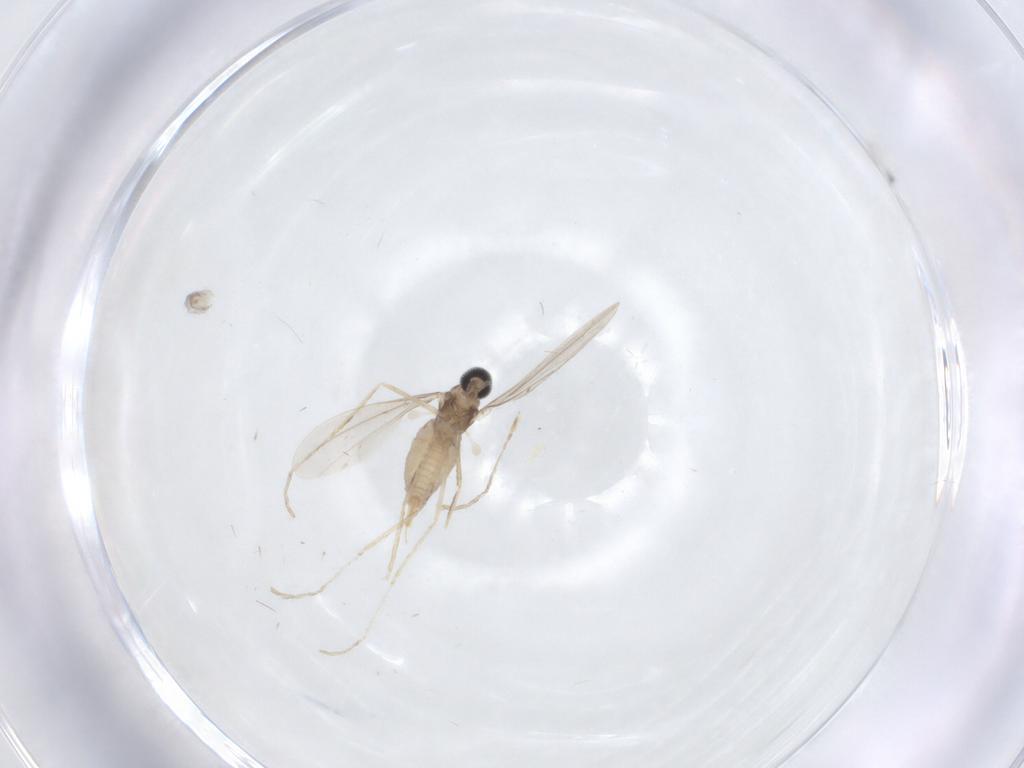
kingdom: Animalia
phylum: Arthropoda
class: Insecta
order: Diptera
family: Cecidomyiidae
